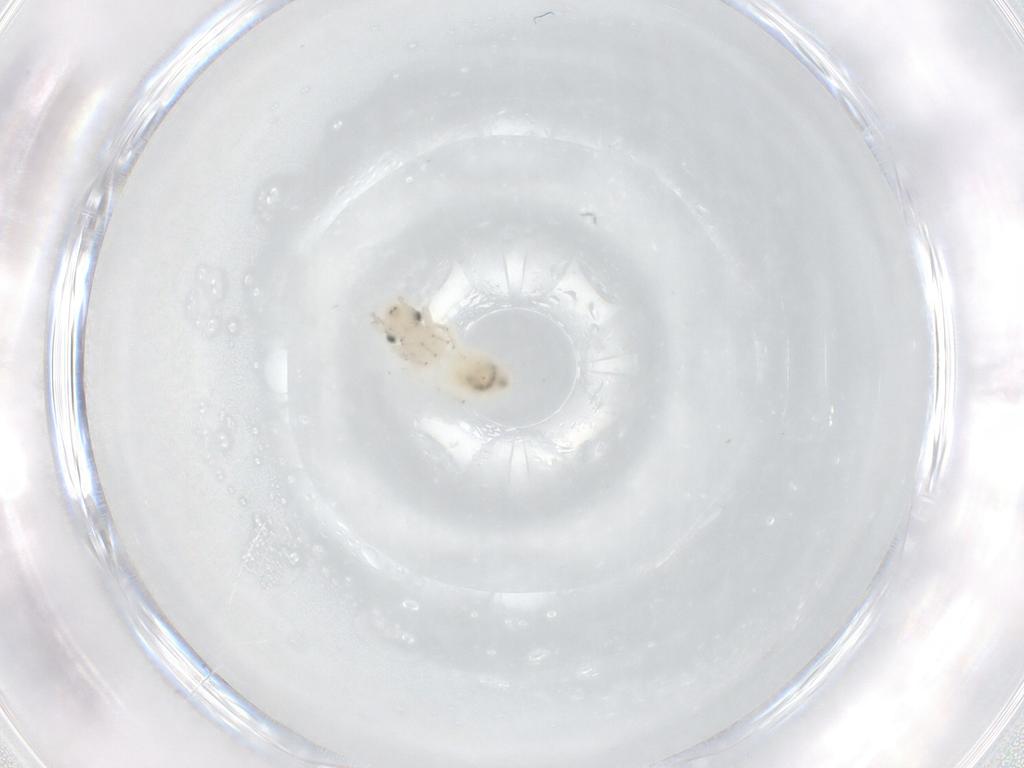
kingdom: Animalia
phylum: Arthropoda
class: Insecta
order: Psocodea
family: Lepidopsocidae
